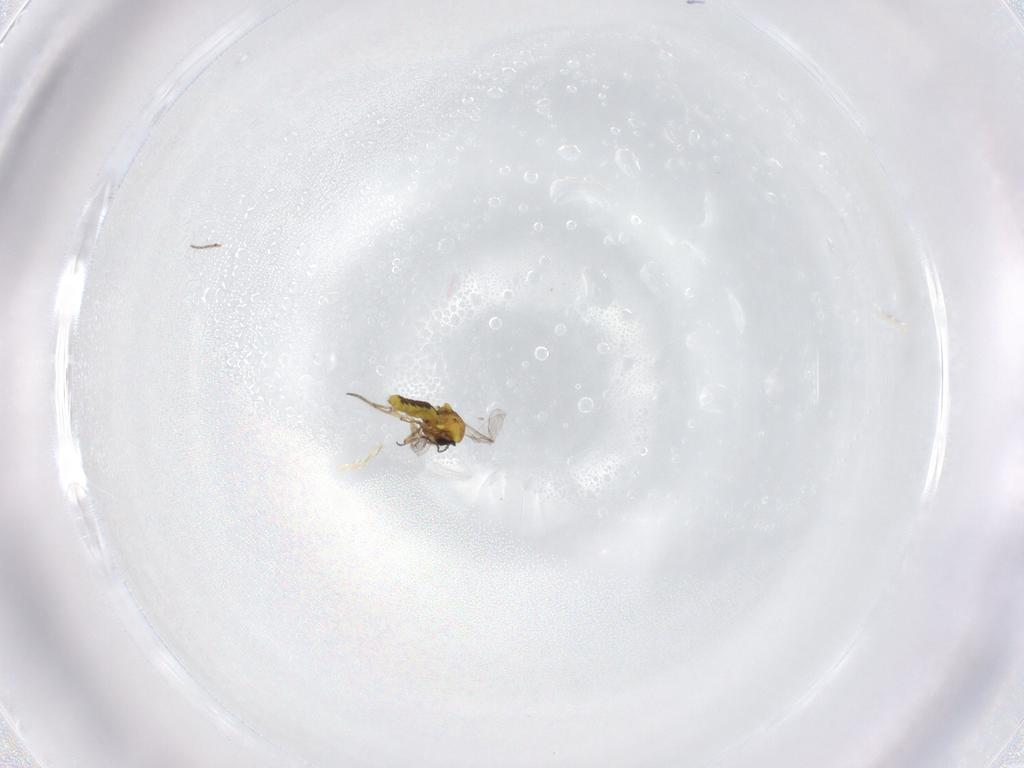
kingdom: Animalia
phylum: Arthropoda
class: Insecta
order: Diptera
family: Ceratopogonidae
